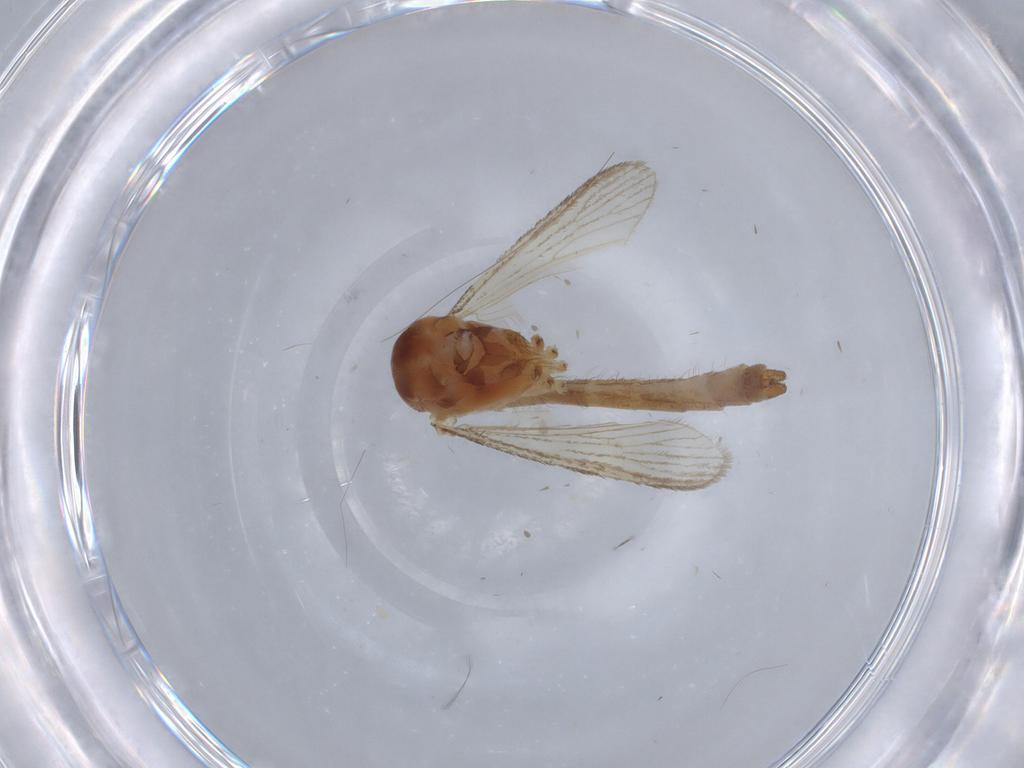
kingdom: Animalia
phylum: Arthropoda
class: Insecta
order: Diptera
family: Culicidae
